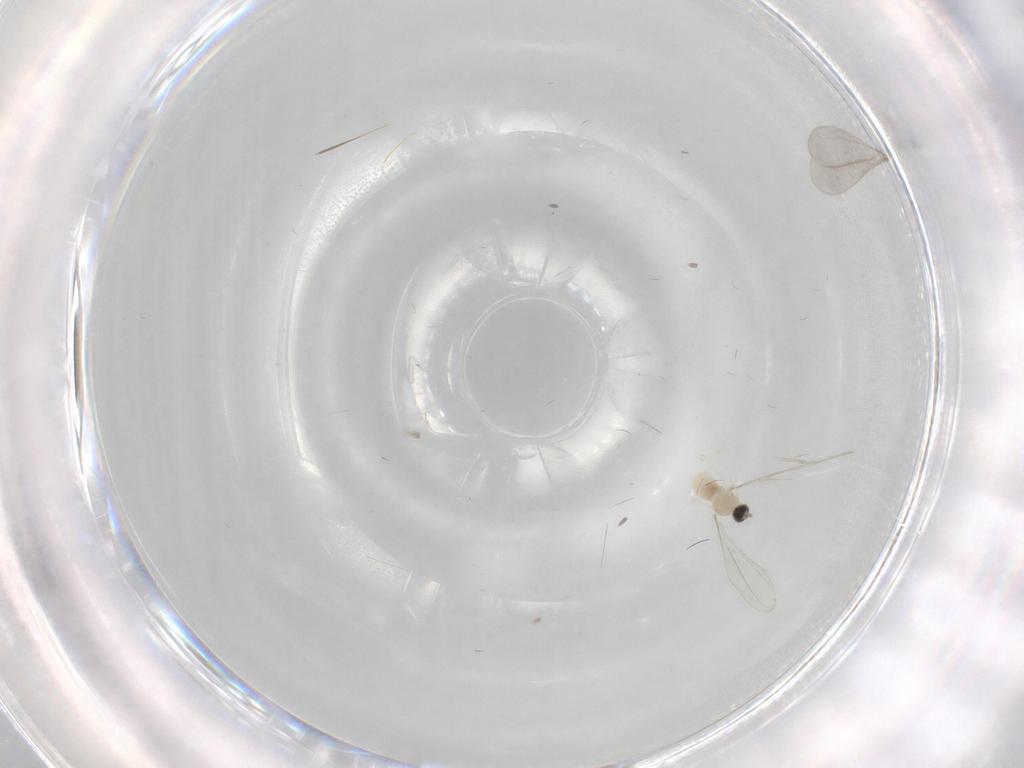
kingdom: Animalia
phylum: Arthropoda
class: Insecta
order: Diptera
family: Cecidomyiidae
